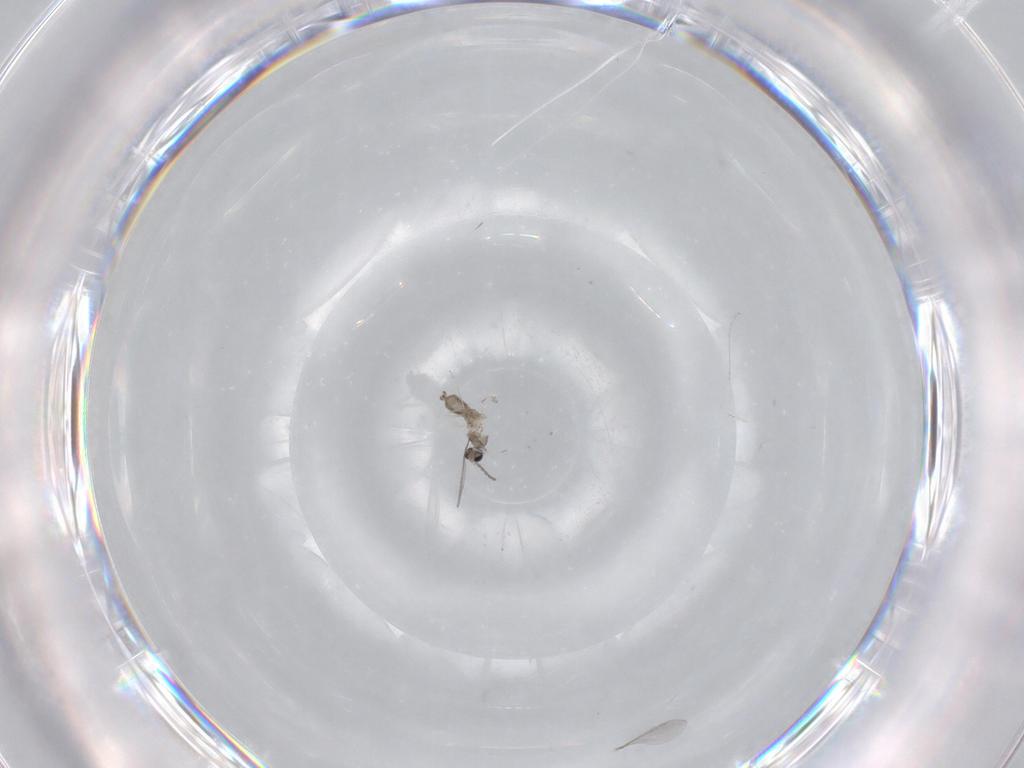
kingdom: Animalia
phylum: Arthropoda
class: Insecta
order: Diptera
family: Cecidomyiidae
